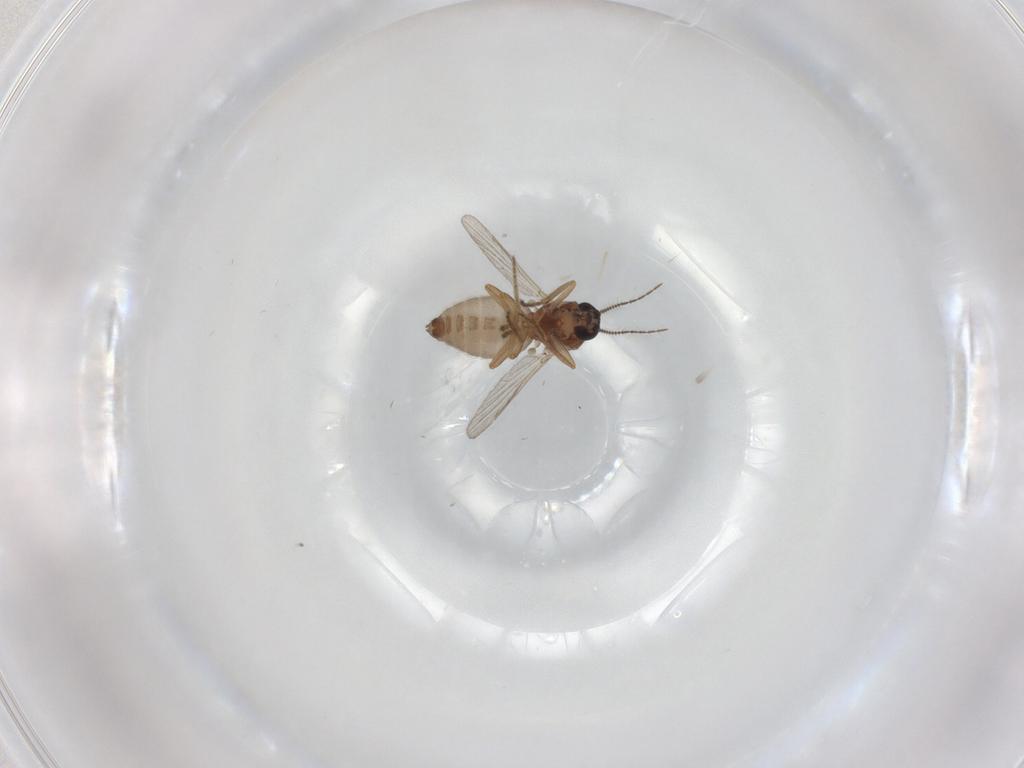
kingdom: Animalia
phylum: Arthropoda
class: Insecta
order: Diptera
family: Ceratopogonidae
